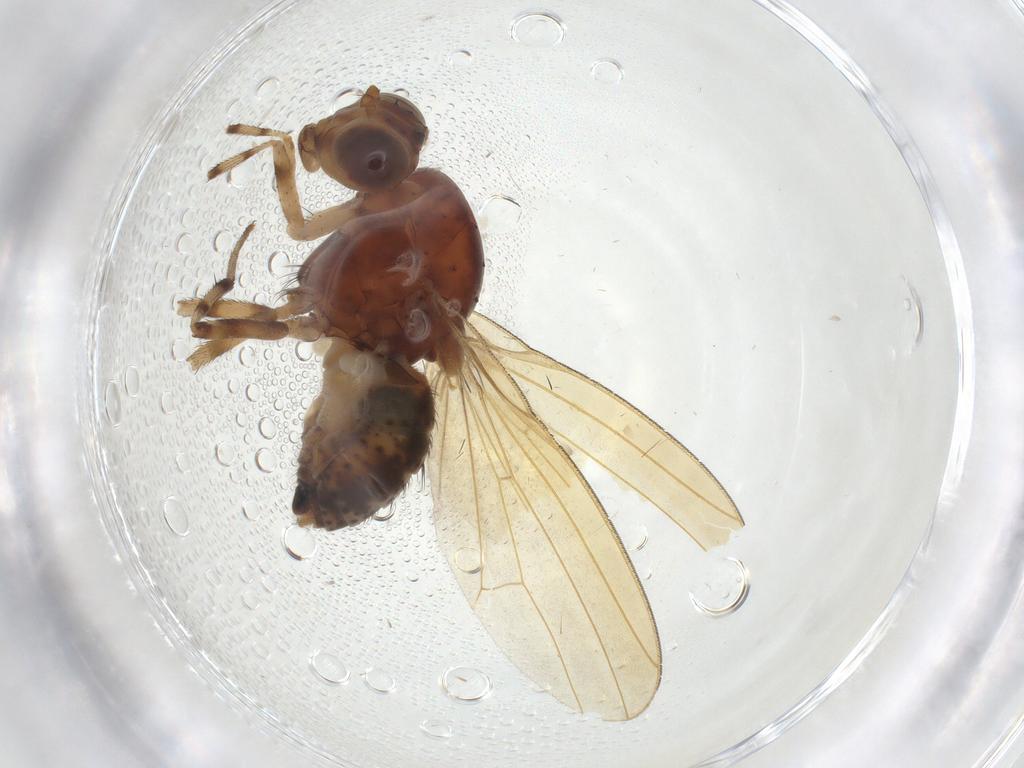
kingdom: Animalia
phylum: Arthropoda
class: Insecta
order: Diptera
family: Lauxaniidae
